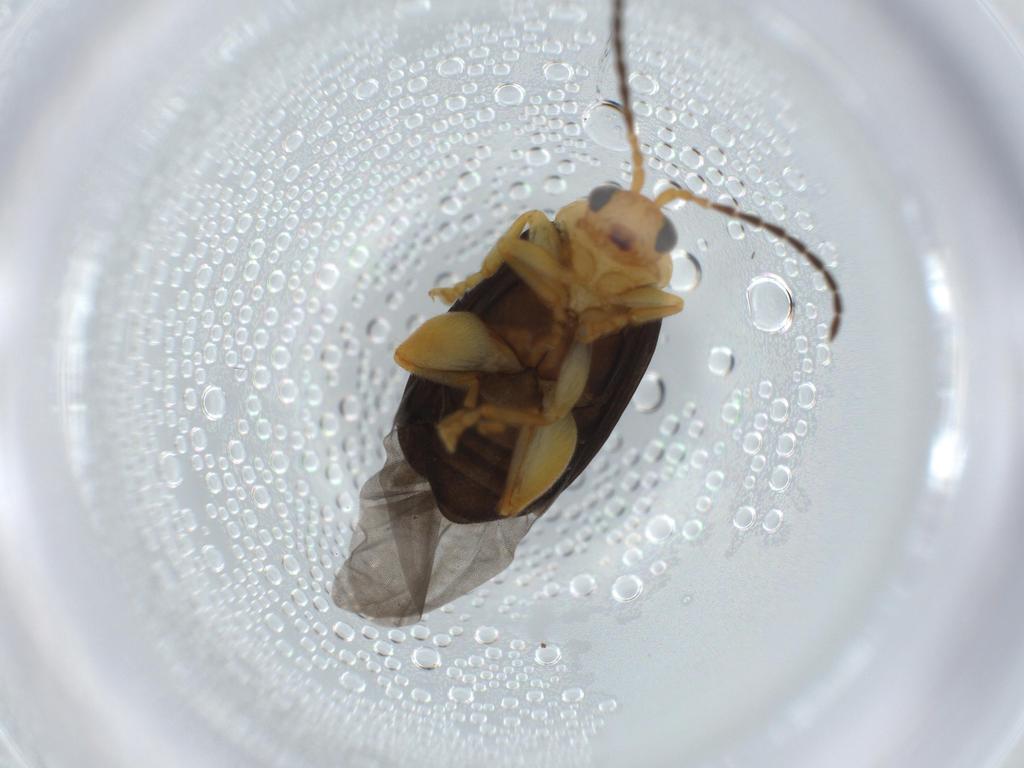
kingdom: Animalia
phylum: Arthropoda
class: Insecta
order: Coleoptera
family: Chrysomelidae
